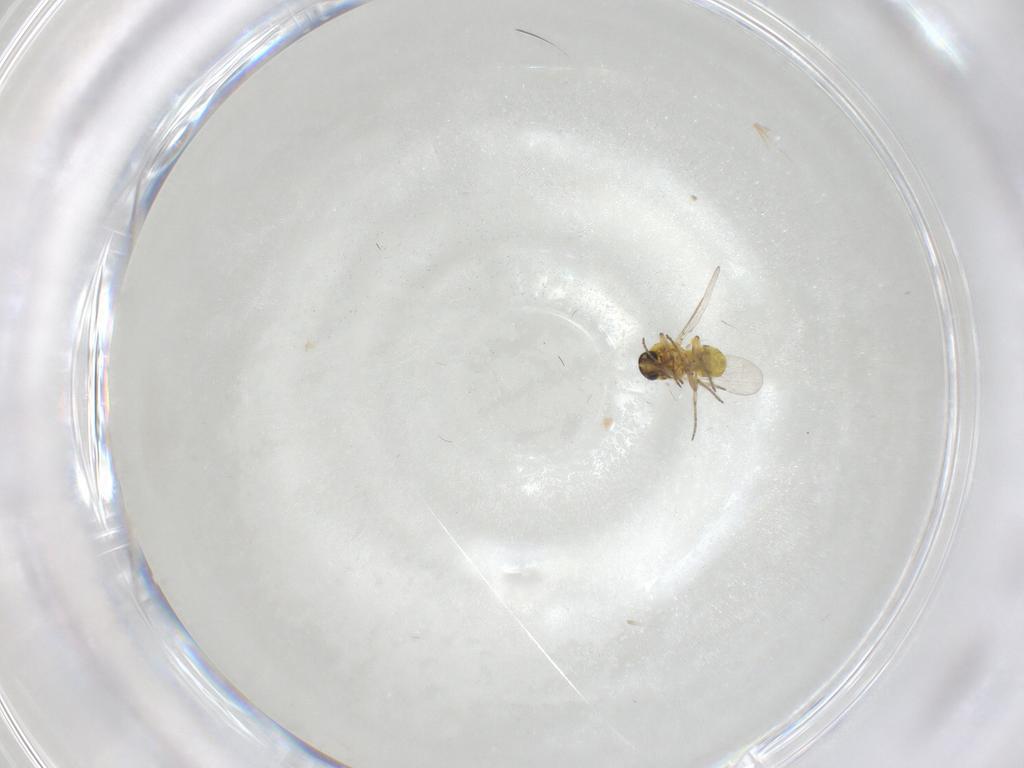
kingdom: Animalia
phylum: Arthropoda
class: Insecta
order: Diptera
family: Ceratopogonidae
